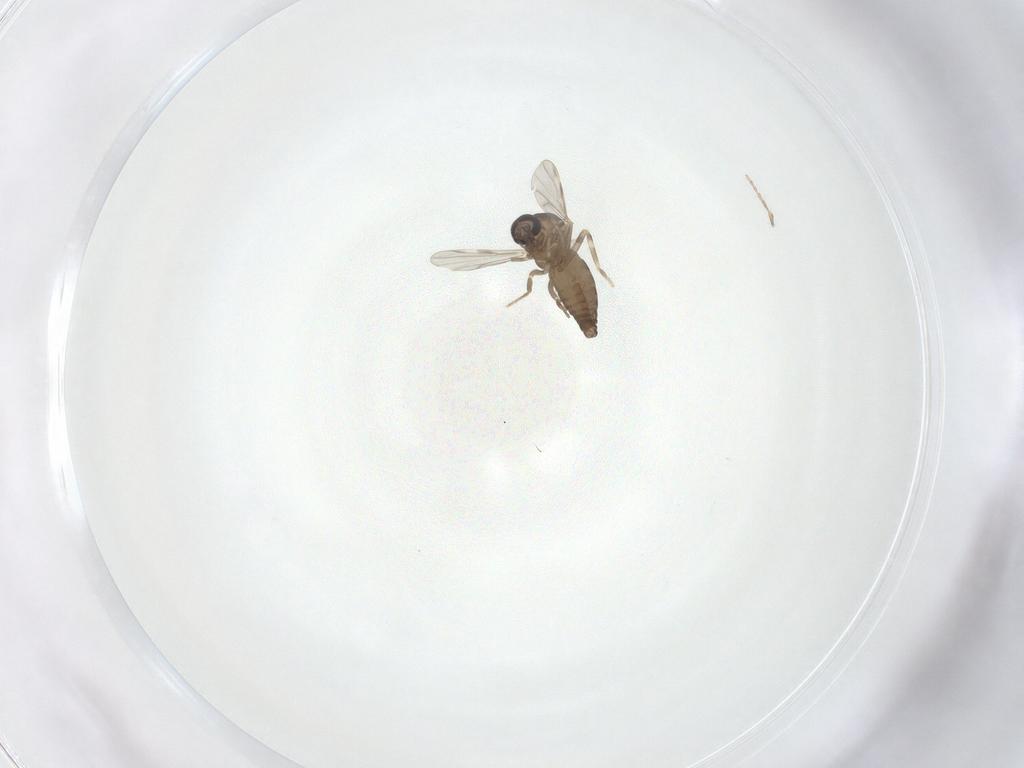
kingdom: Animalia
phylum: Arthropoda
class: Insecta
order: Diptera
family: Ceratopogonidae
